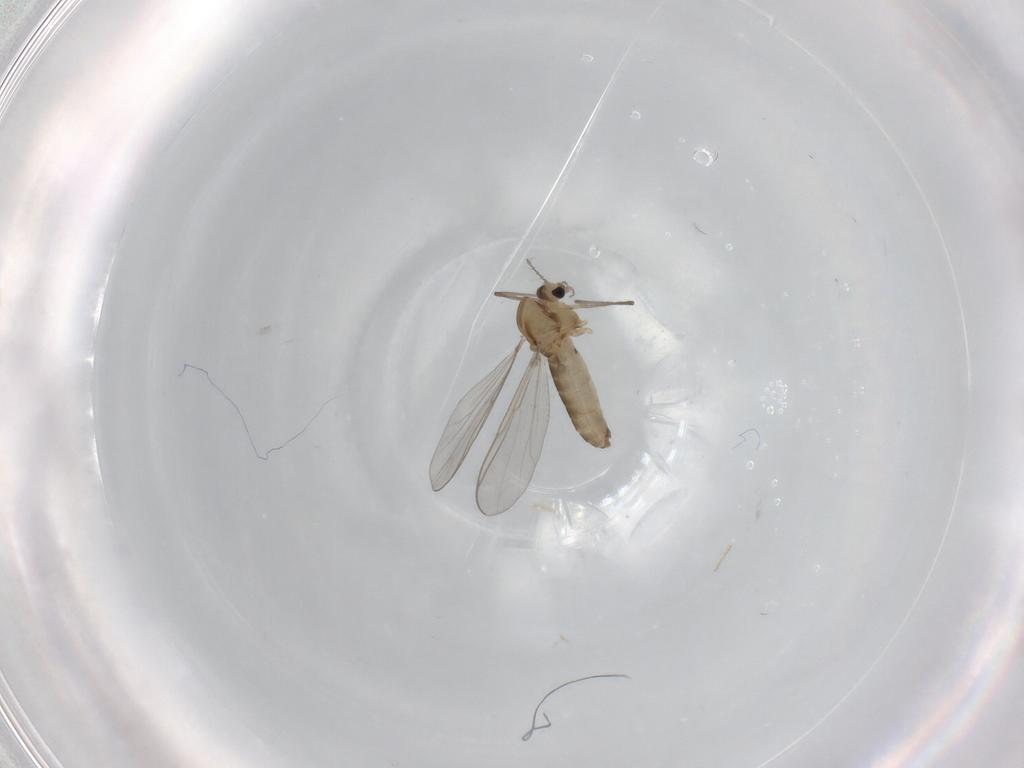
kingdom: Animalia
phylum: Arthropoda
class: Insecta
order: Diptera
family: Chironomidae
